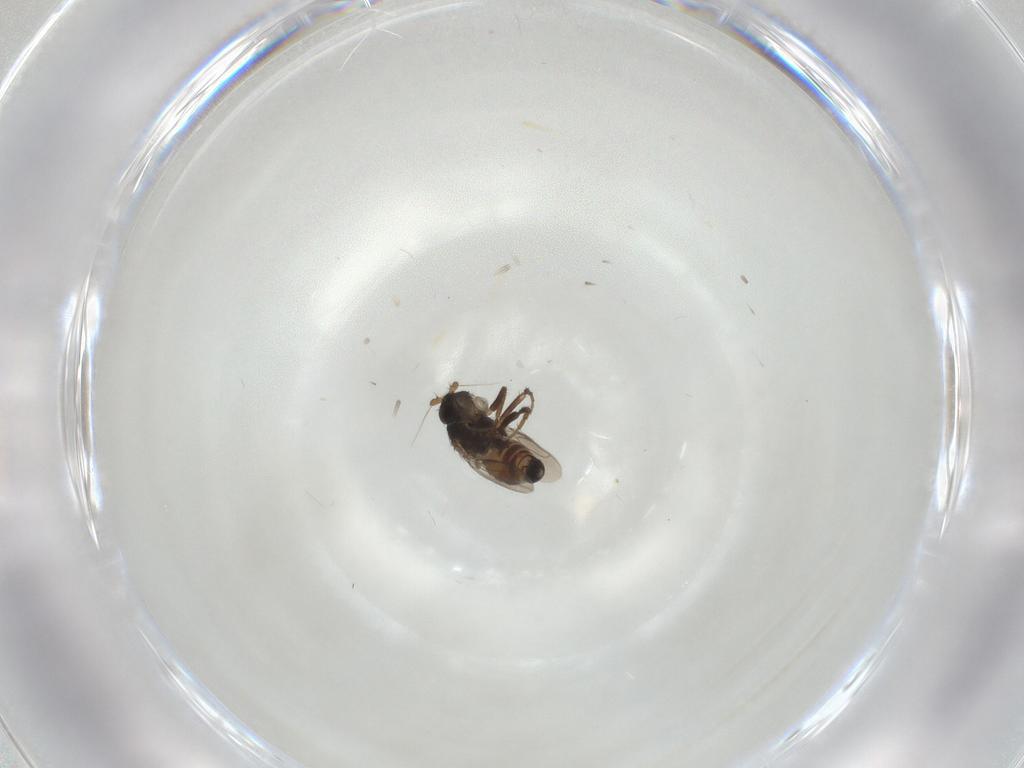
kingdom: Animalia
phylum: Arthropoda
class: Insecta
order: Diptera
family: Sphaeroceridae
